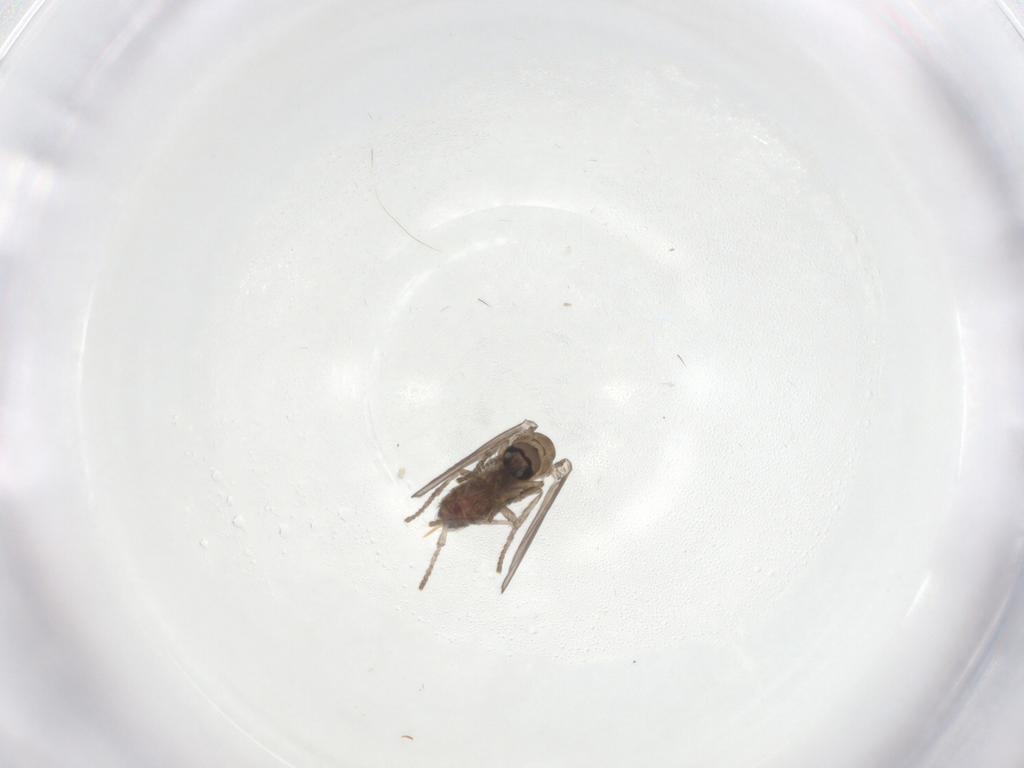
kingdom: Animalia
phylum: Arthropoda
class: Insecta
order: Diptera
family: Psychodidae
